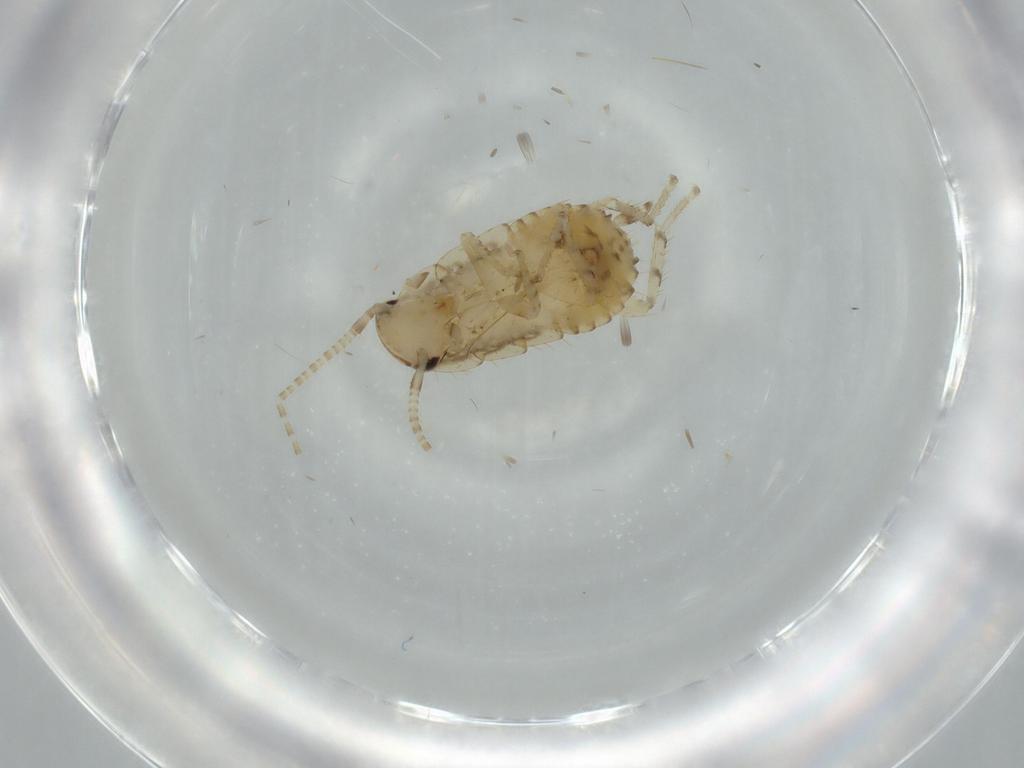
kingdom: Animalia
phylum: Arthropoda
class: Insecta
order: Blattodea
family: Ectobiidae
